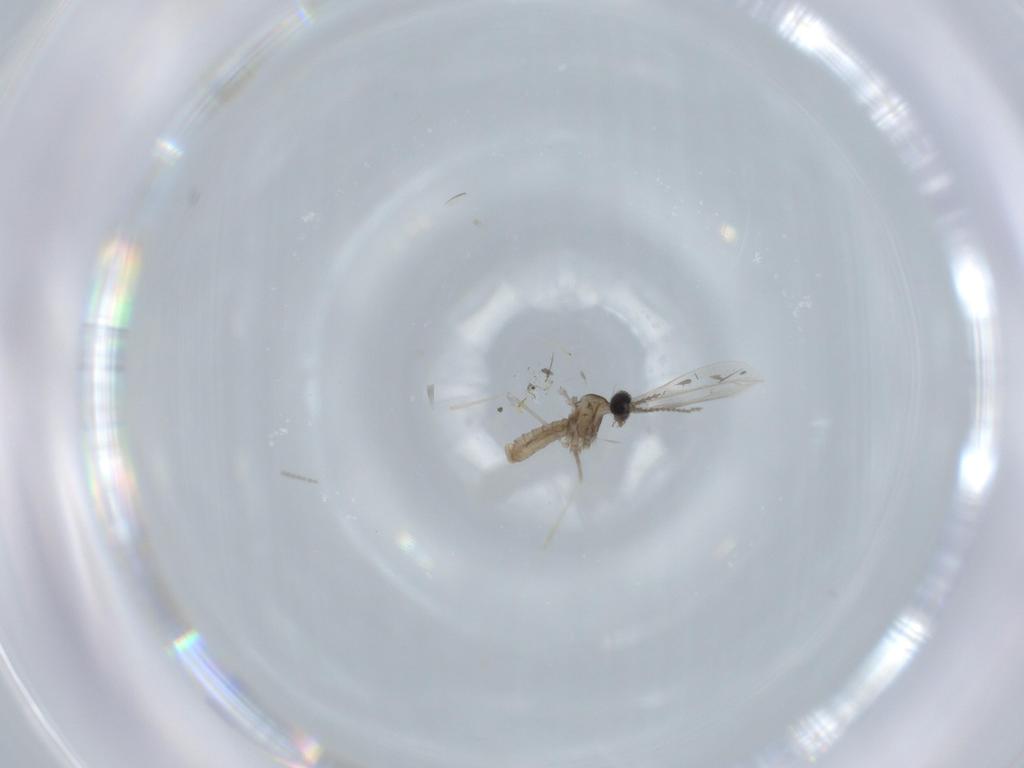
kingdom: Animalia
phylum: Arthropoda
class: Insecta
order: Diptera
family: Cecidomyiidae
